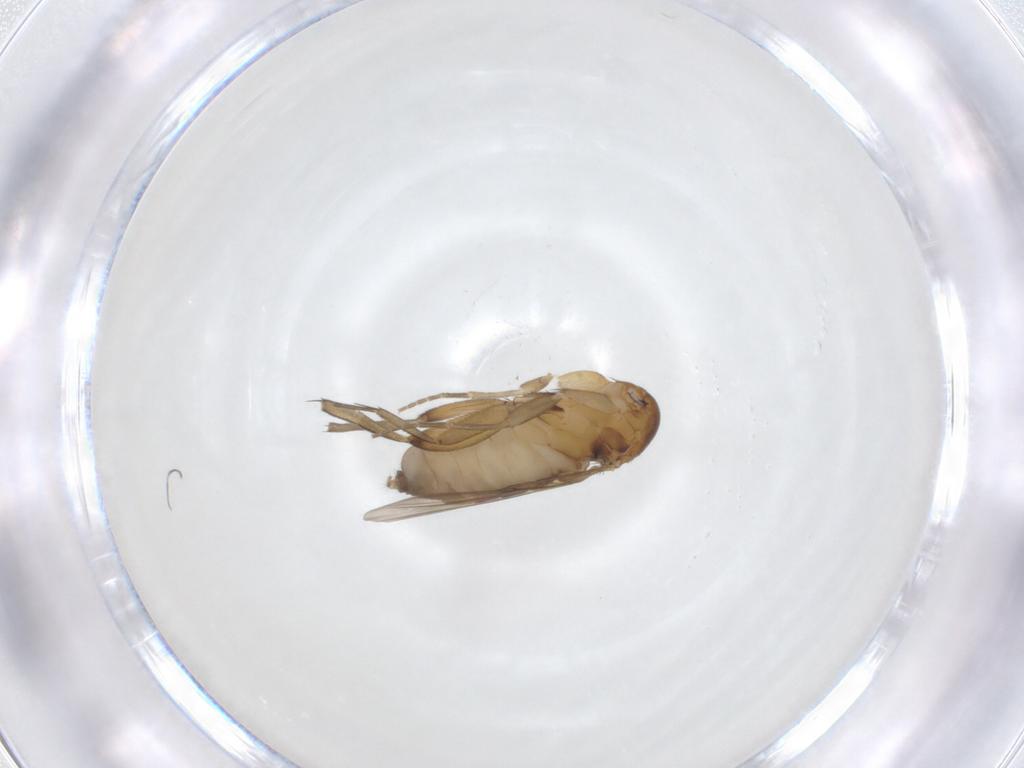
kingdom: Animalia
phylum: Arthropoda
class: Insecta
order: Diptera
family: Phoridae
